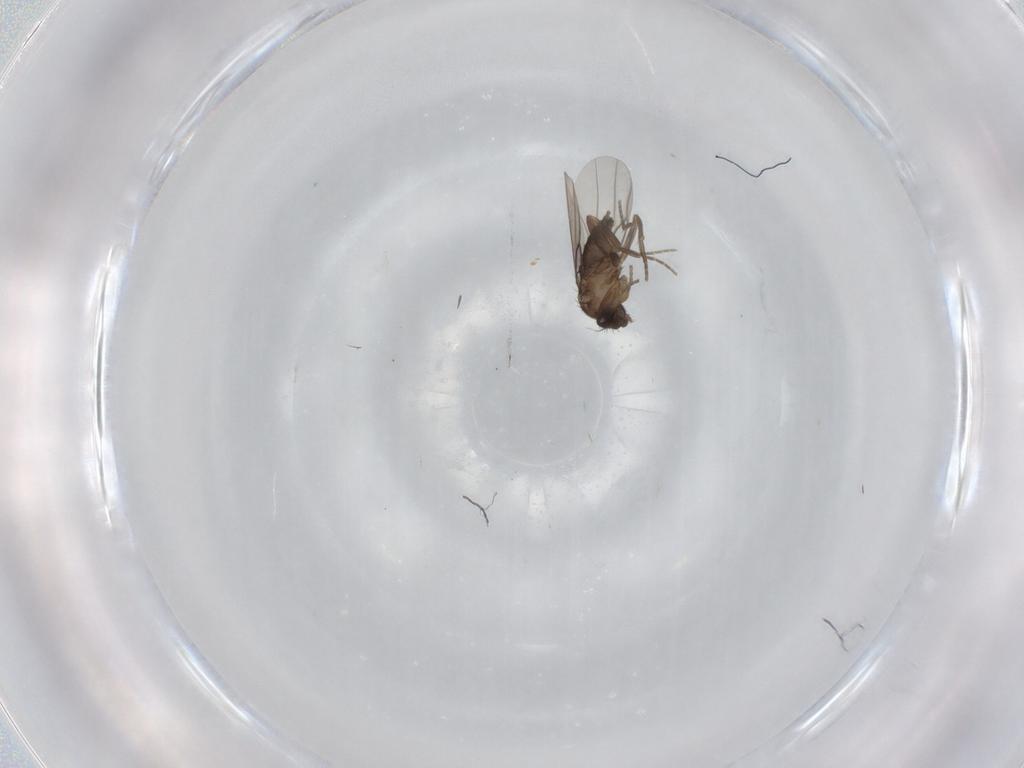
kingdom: Animalia
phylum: Arthropoda
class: Insecta
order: Diptera
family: Phoridae
